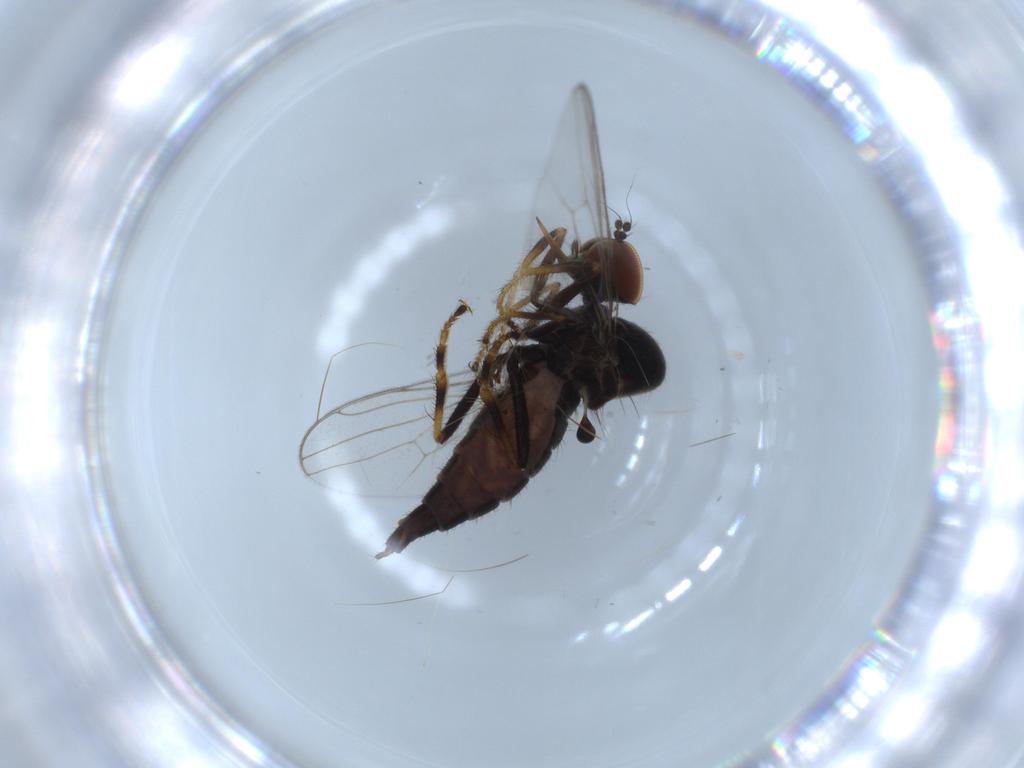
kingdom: Animalia
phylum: Arthropoda
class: Insecta
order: Diptera
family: Hybotidae
